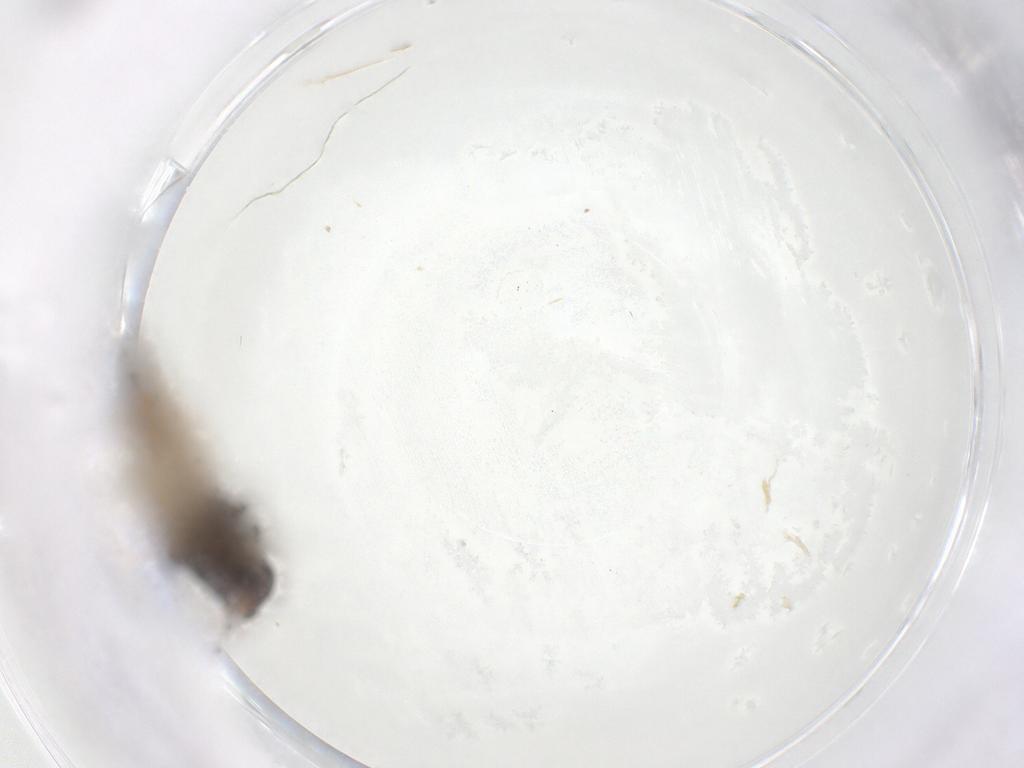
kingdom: Animalia
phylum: Arthropoda
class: Insecta
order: Diptera
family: Chloropidae
